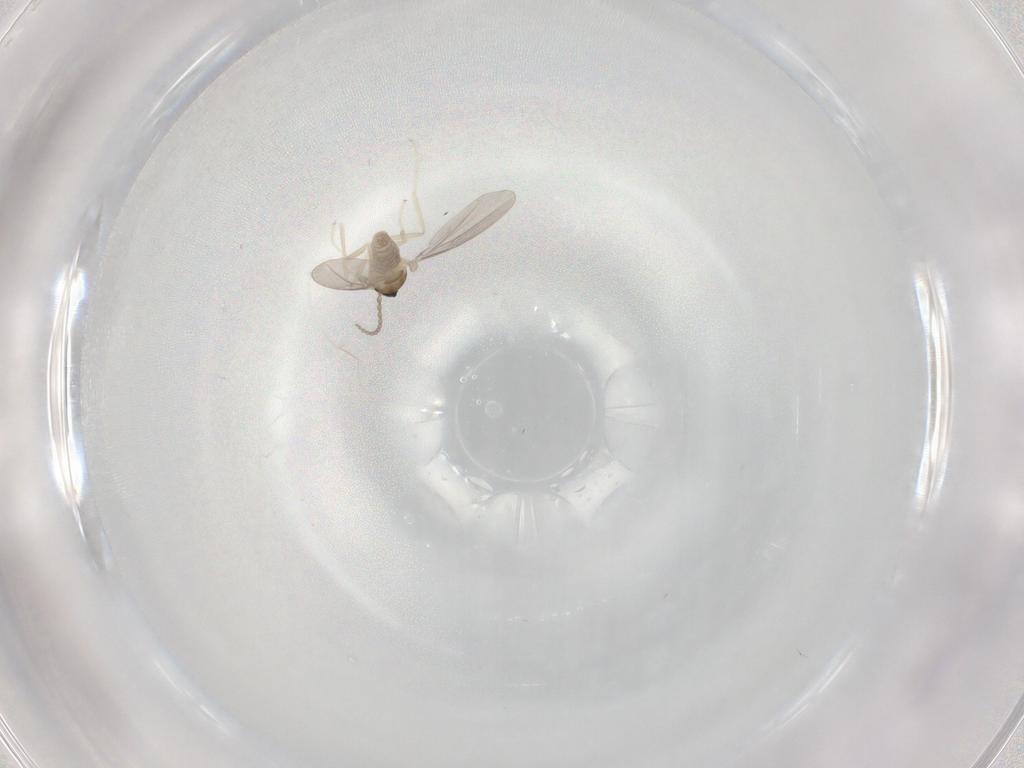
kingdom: Animalia
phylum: Arthropoda
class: Insecta
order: Diptera
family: Cecidomyiidae
